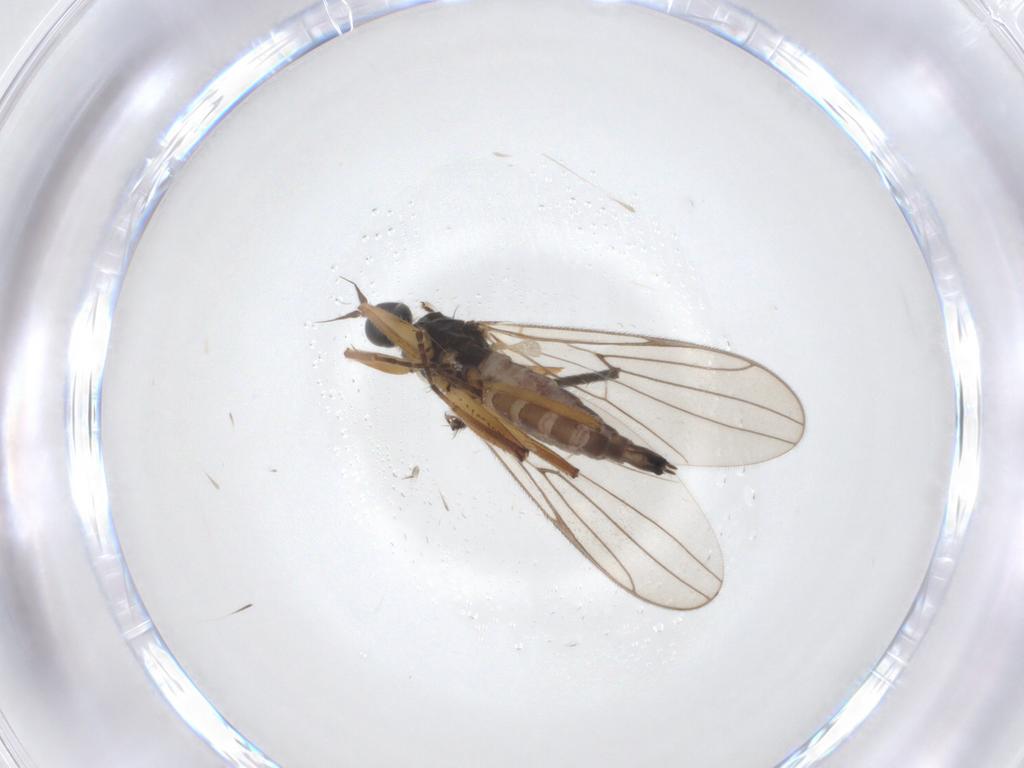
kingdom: Animalia
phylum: Arthropoda
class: Insecta
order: Diptera
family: Hybotidae
